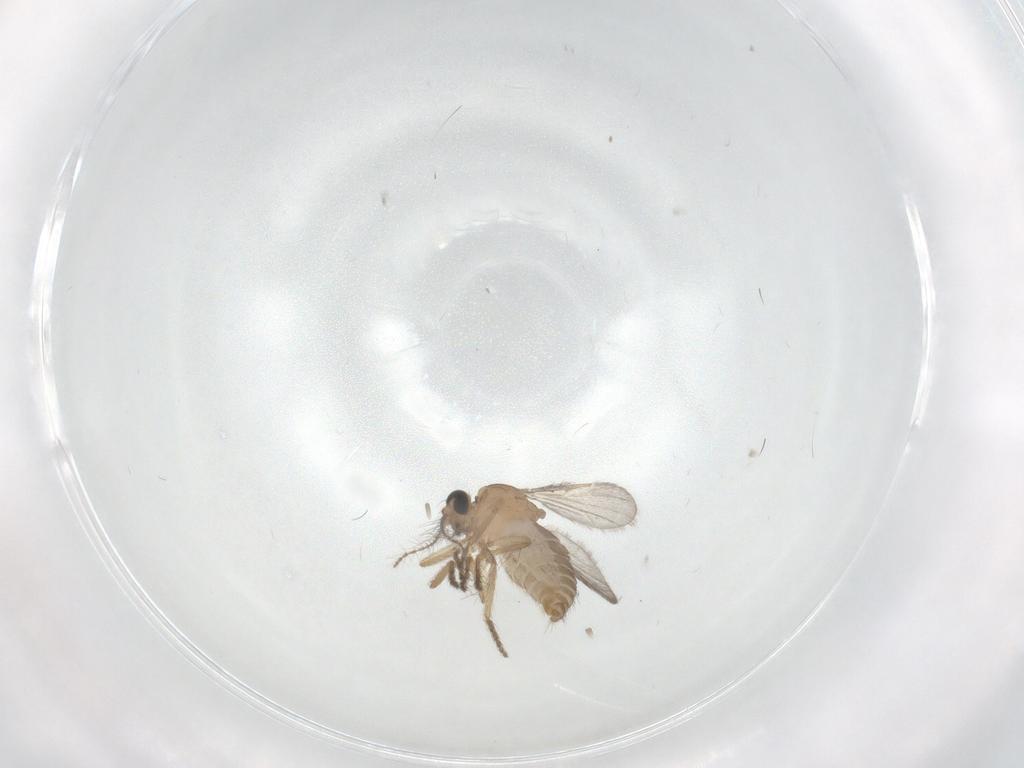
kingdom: Animalia
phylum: Arthropoda
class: Insecta
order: Diptera
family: Ceratopogonidae
